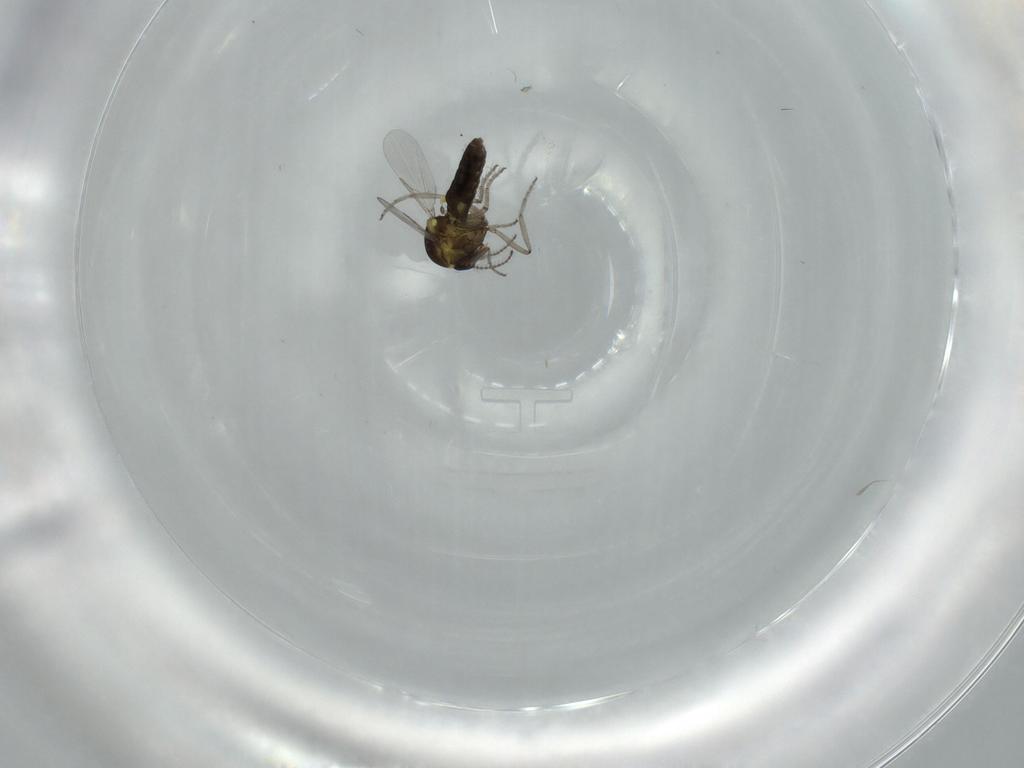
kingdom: Animalia
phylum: Arthropoda
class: Insecta
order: Diptera
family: Ceratopogonidae
